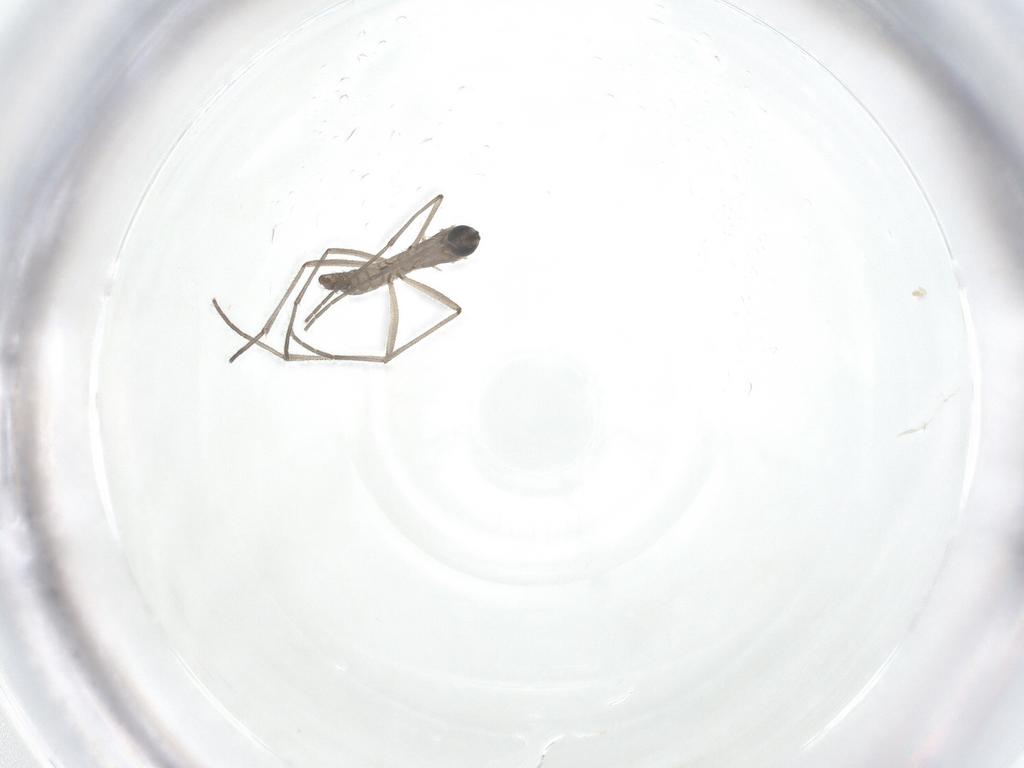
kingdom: Animalia
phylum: Arthropoda
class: Insecta
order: Diptera
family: Sciaridae
